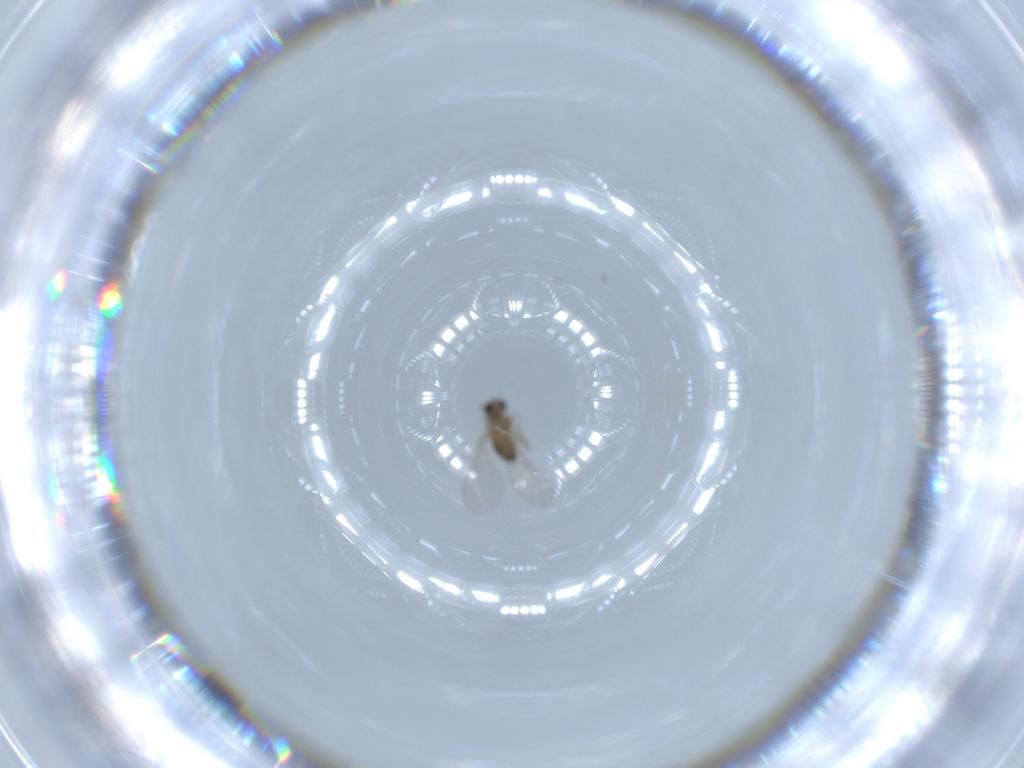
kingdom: Animalia
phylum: Arthropoda
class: Insecta
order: Diptera
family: Cecidomyiidae
